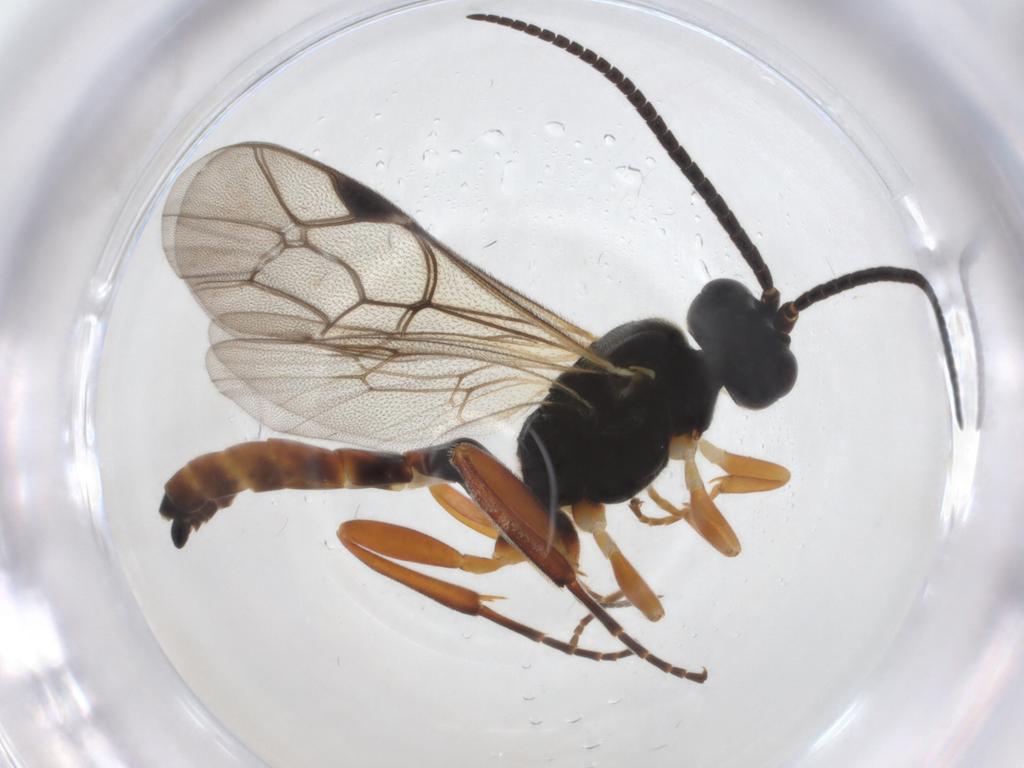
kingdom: Animalia
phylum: Arthropoda
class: Insecta
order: Hymenoptera
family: Ichneumonidae
